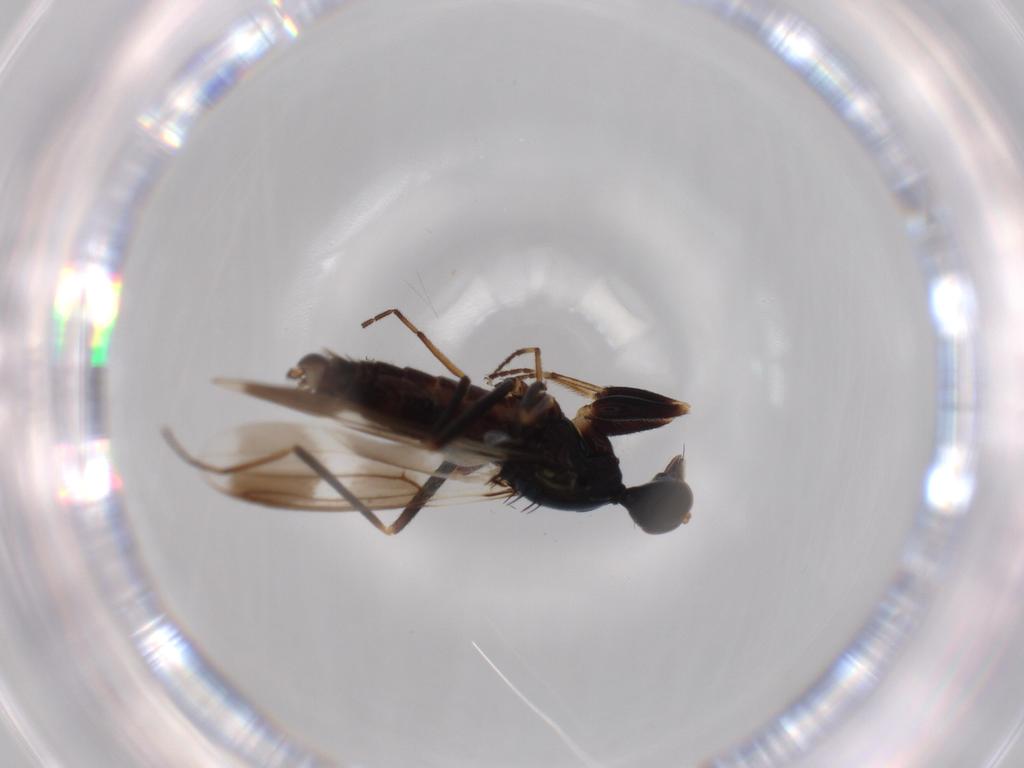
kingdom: Animalia
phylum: Arthropoda
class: Insecta
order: Diptera
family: Hybotidae
